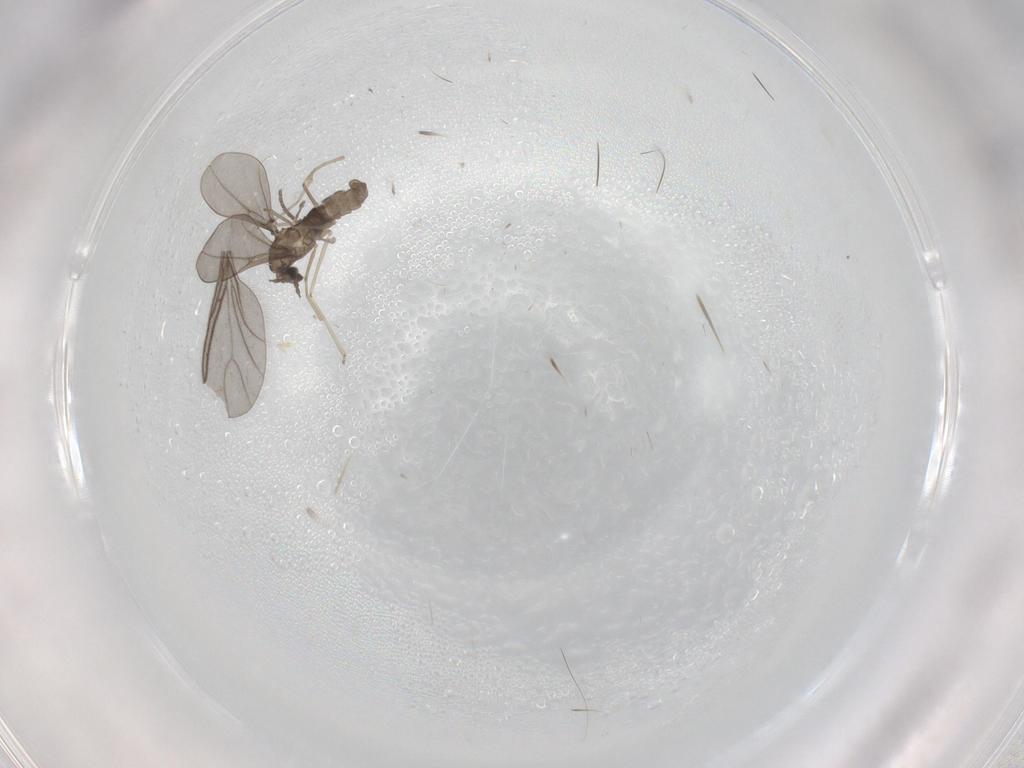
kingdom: Animalia
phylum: Arthropoda
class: Insecta
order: Diptera
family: Cecidomyiidae
